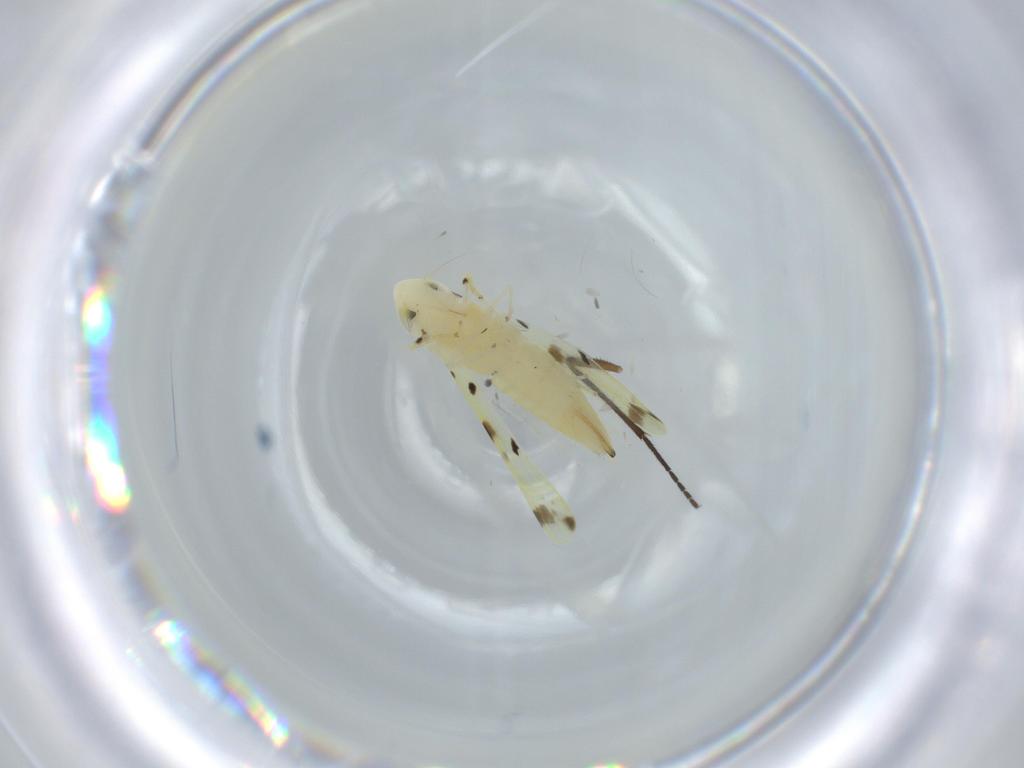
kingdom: Animalia
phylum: Arthropoda
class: Insecta
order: Hemiptera
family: Cicadellidae
